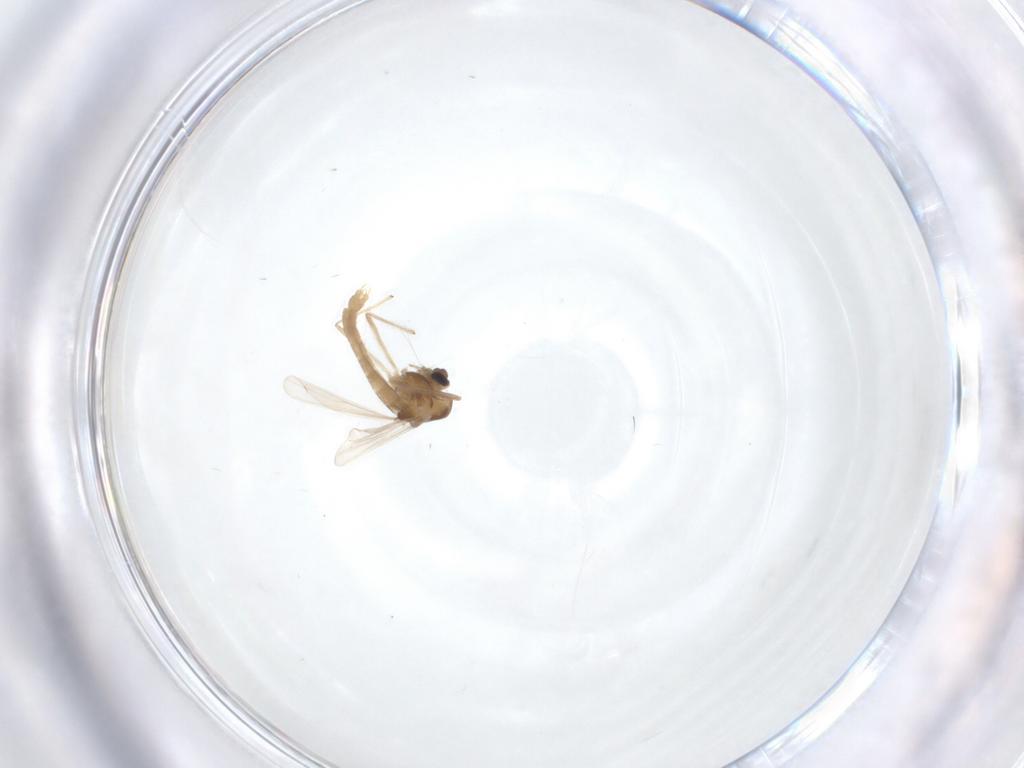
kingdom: Animalia
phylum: Arthropoda
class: Insecta
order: Diptera
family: Chironomidae
